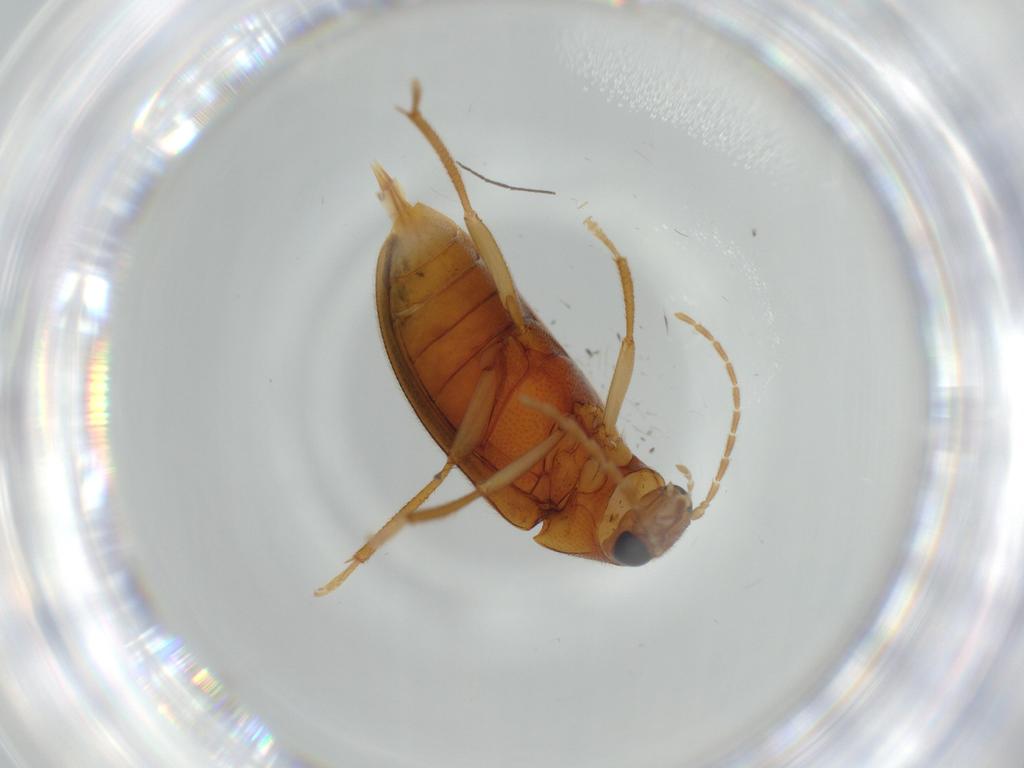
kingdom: Animalia
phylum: Arthropoda
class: Insecta
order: Coleoptera
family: Ptilodactylidae
